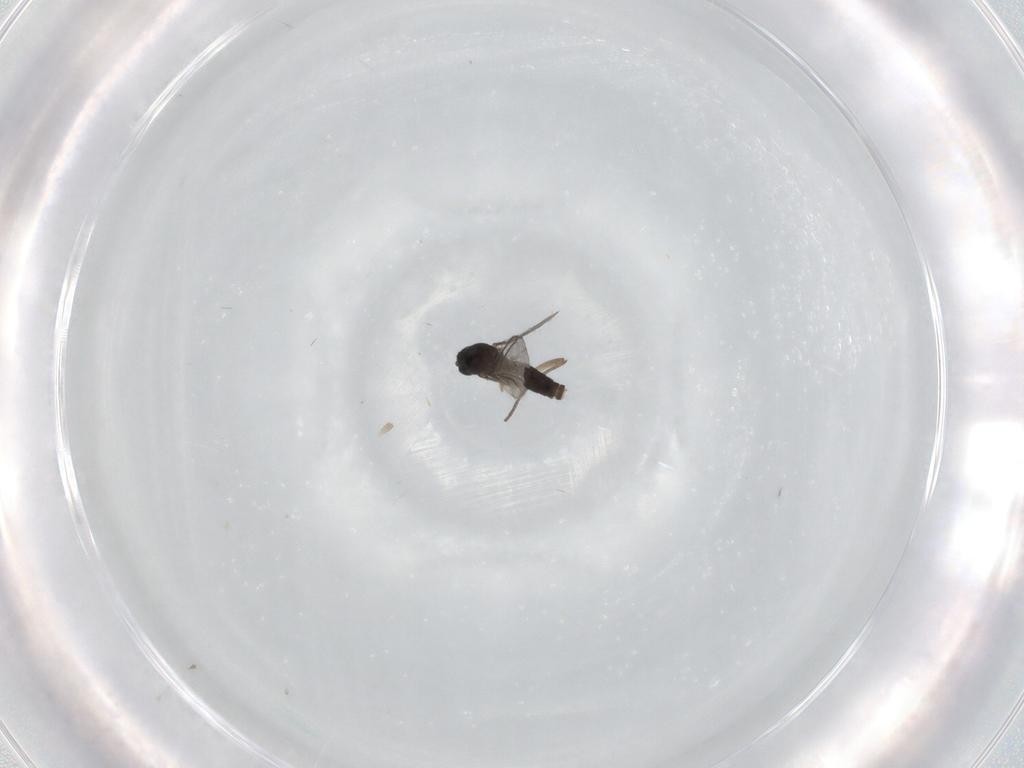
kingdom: Animalia
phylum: Arthropoda
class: Insecta
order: Diptera
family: Sciaridae
